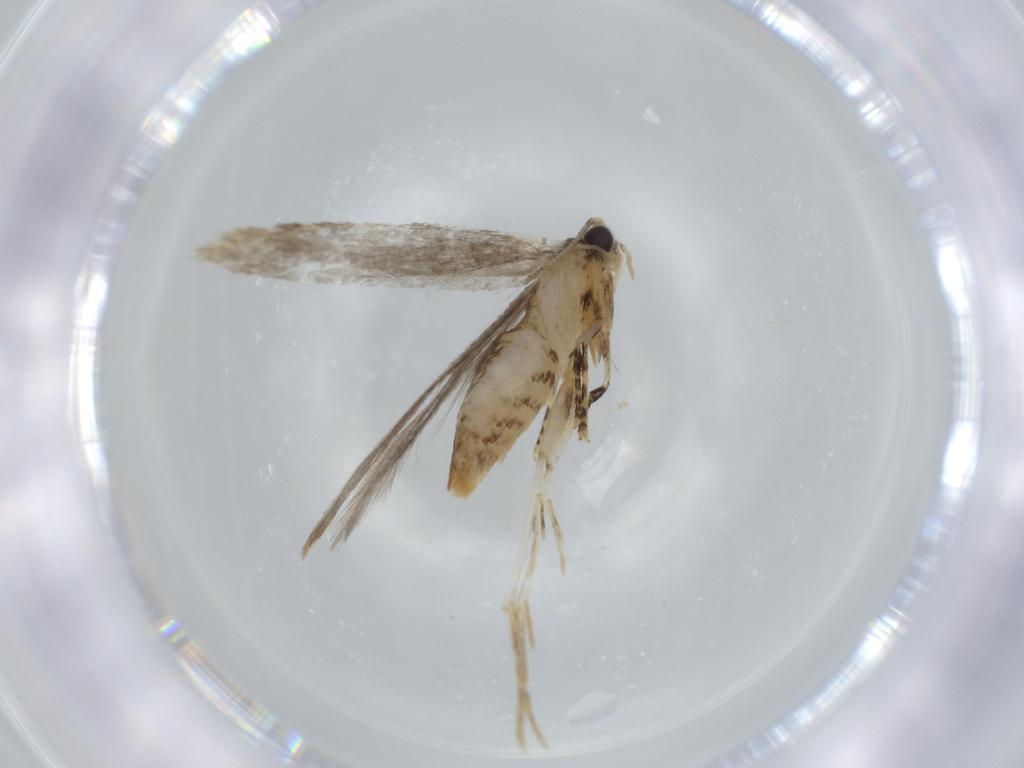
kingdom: Animalia
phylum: Arthropoda
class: Insecta
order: Lepidoptera
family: Tineidae
